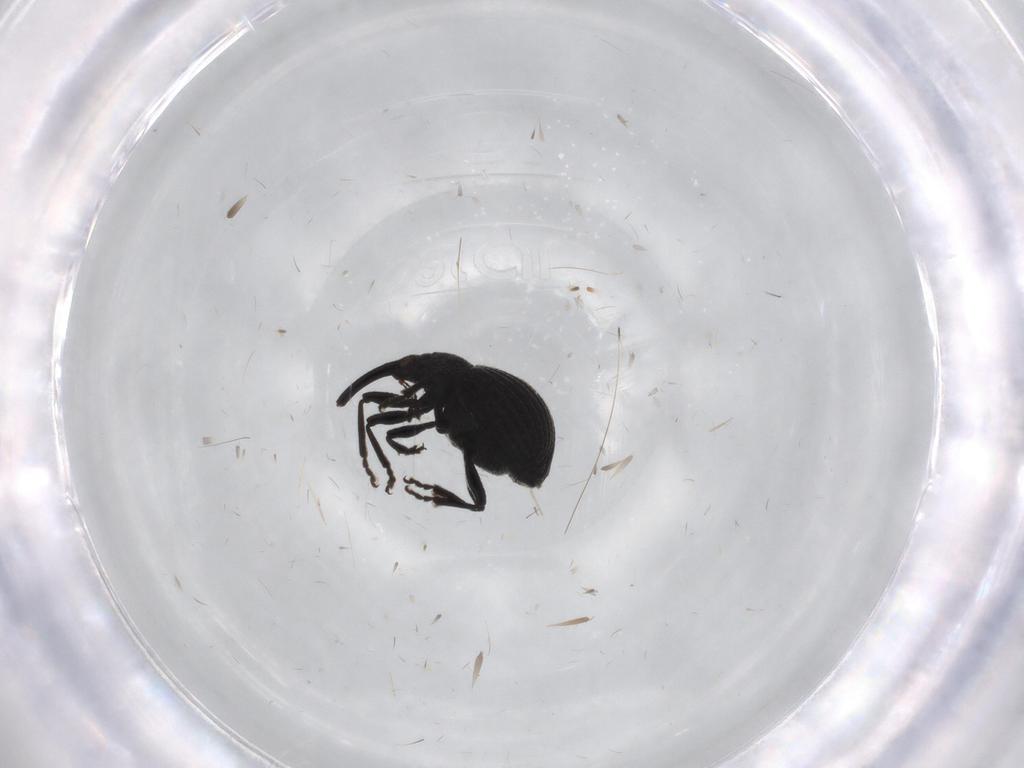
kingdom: Animalia
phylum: Arthropoda
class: Insecta
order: Coleoptera
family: Brentidae
